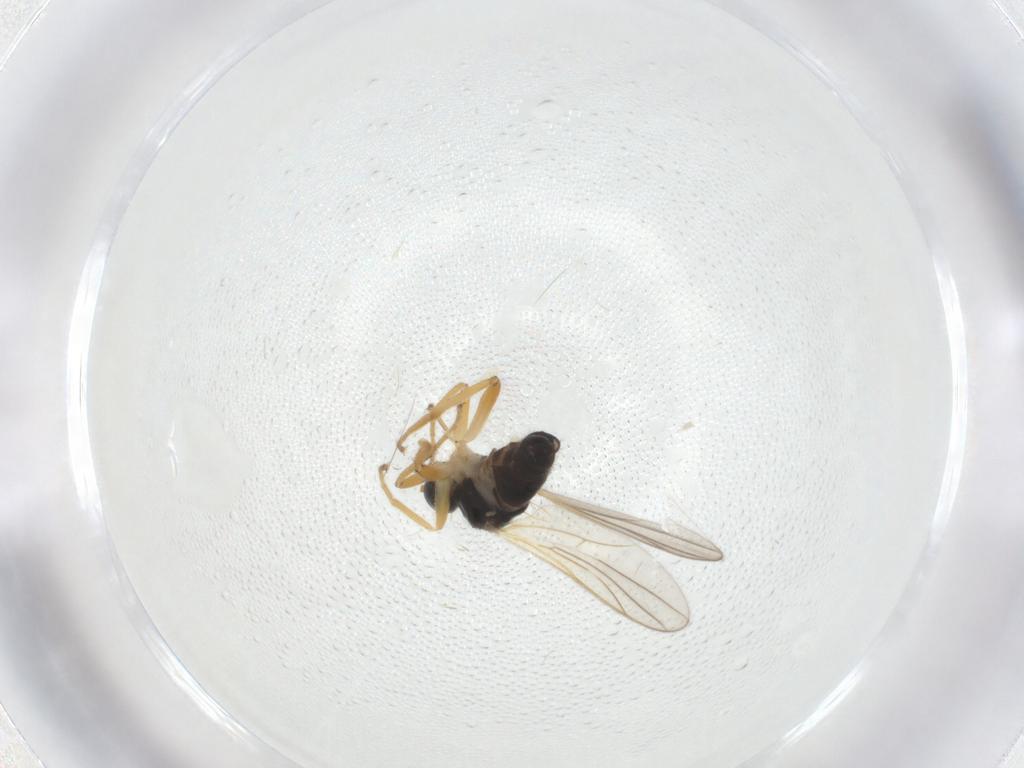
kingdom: Animalia
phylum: Arthropoda
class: Insecta
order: Diptera
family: Hybotidae
